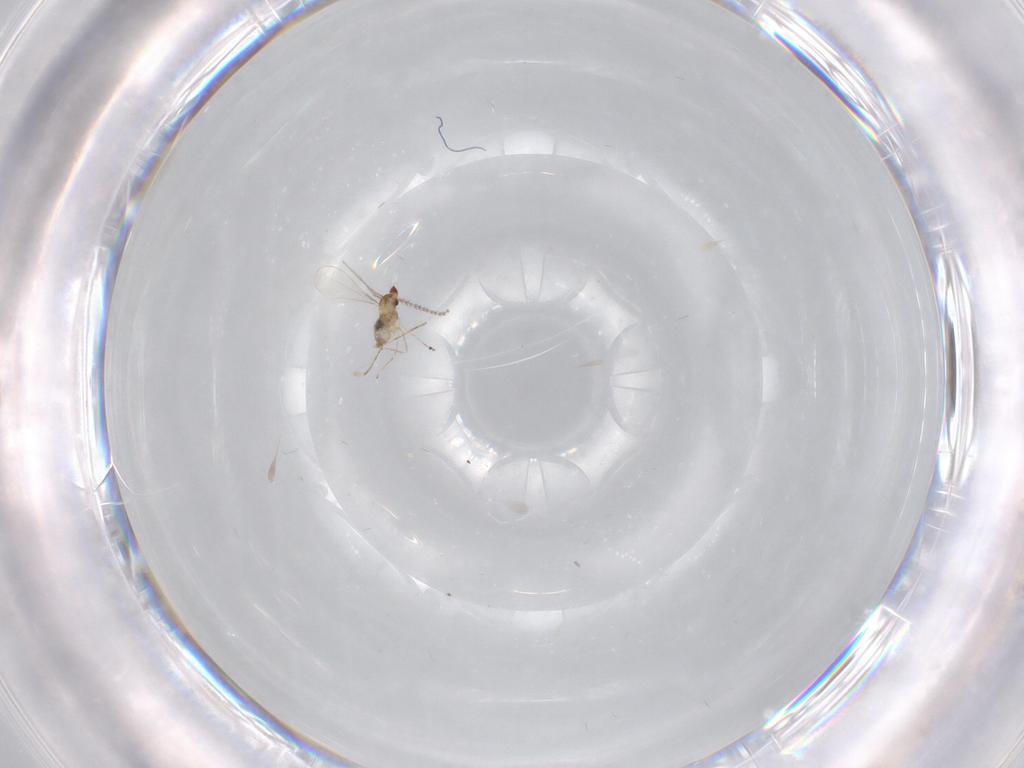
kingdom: Animalia
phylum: Arthropoda
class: Insecta
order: Diptera
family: Cecidomyiidae
